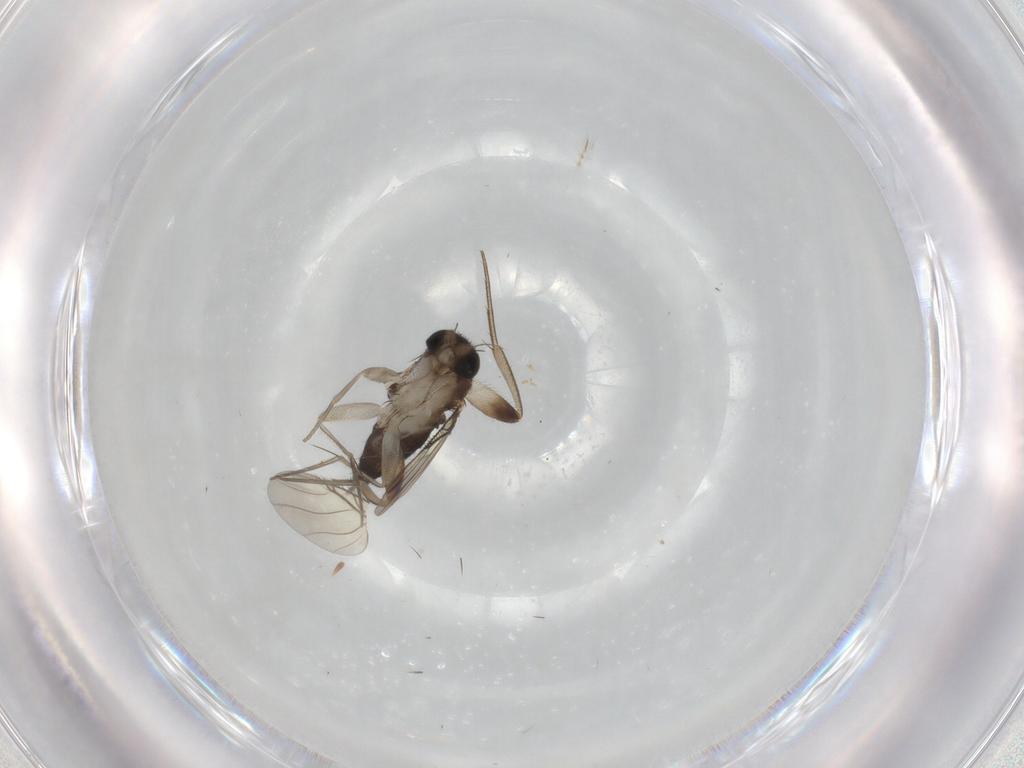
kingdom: Animalia
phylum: Arthropoda
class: Insecta
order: Diptera
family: Phoridae
